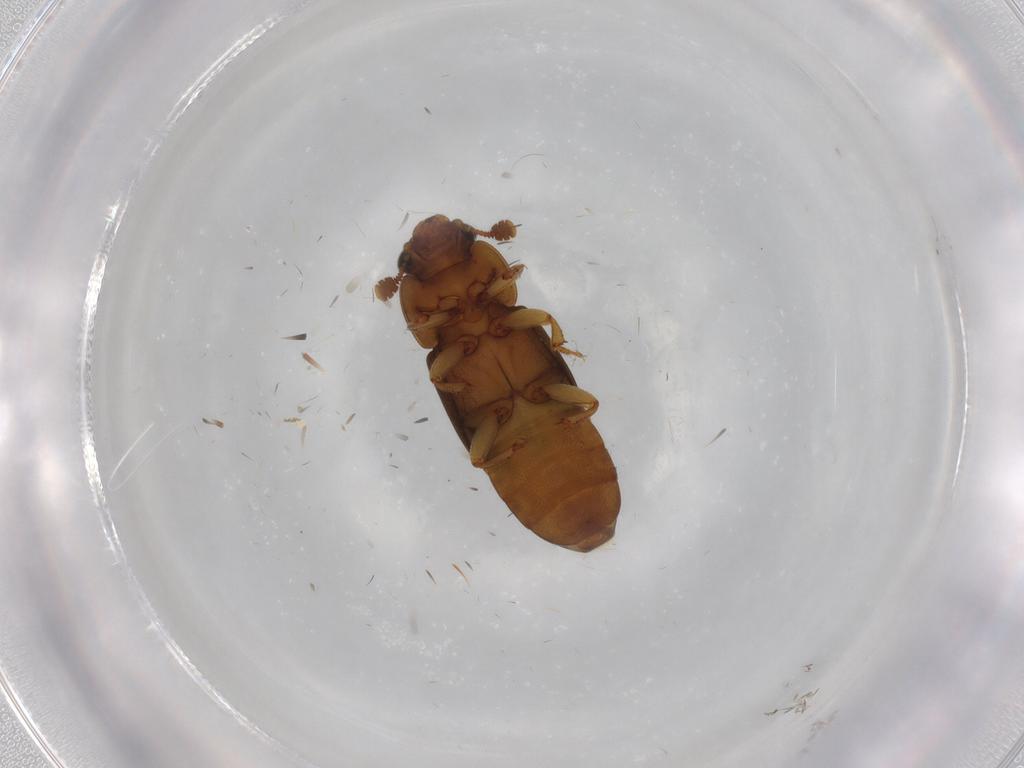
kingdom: Animalia
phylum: Arthropoda
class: Insecta
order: Coleoptera
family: Nitidulidae
